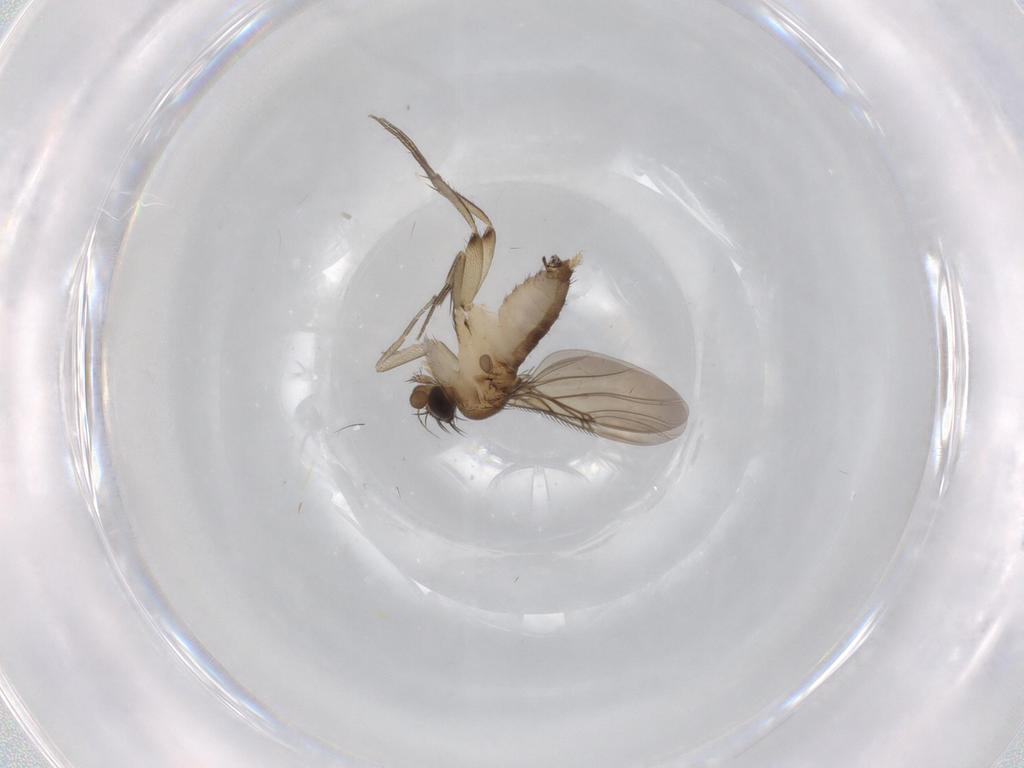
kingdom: Animalia
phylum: Arthropoda
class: Insecta
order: Diptera
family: Phoridae
